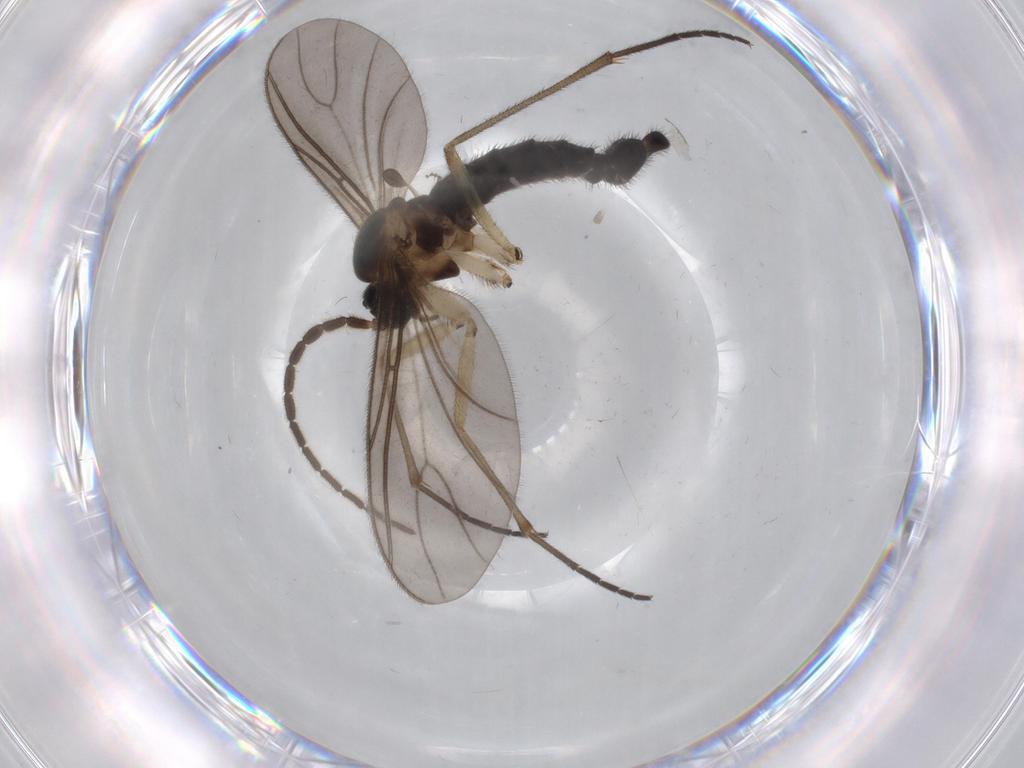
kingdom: Animalia
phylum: Arthropoda
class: Insecta
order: Diptera
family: Sciaridae
